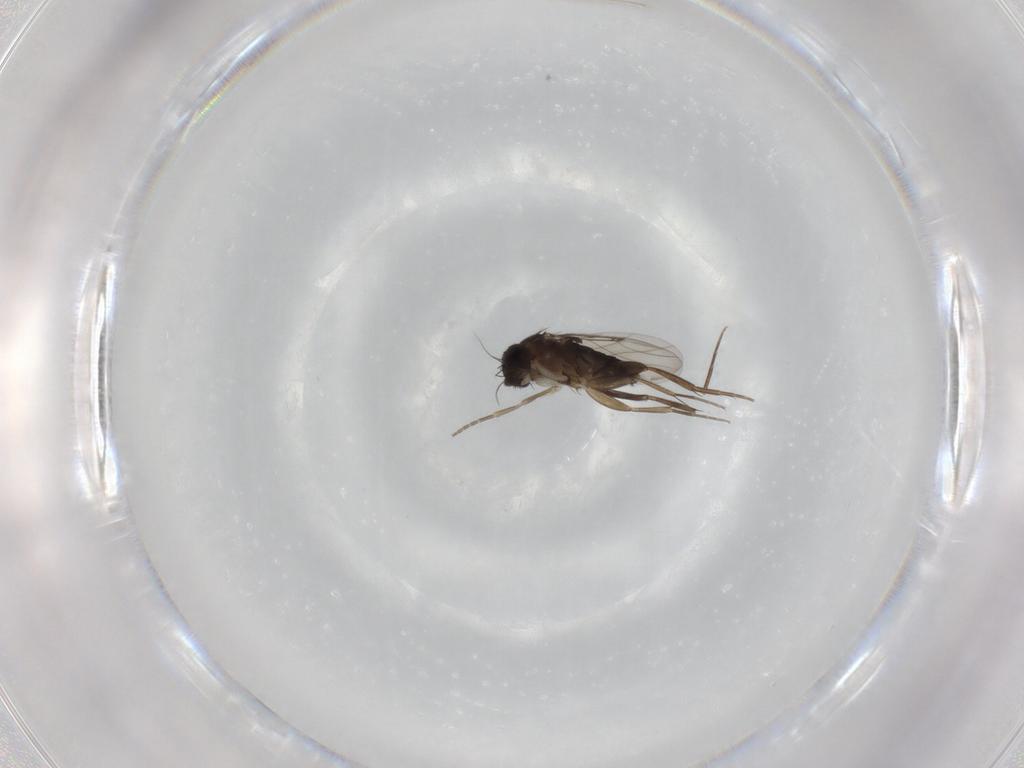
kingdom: Animalia
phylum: Arthropoda
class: Insecta
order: Diptera
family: Phoridae
